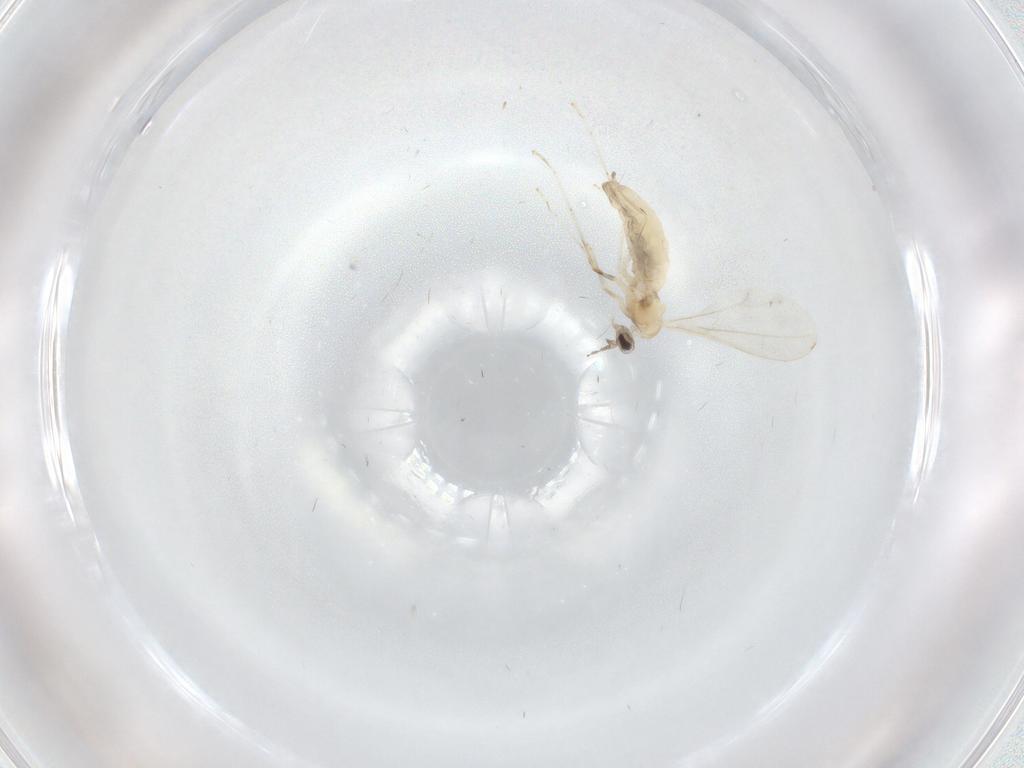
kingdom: Animalia
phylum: Arthropoda
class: Insecta
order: Diptera
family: Cecidomyiidae
